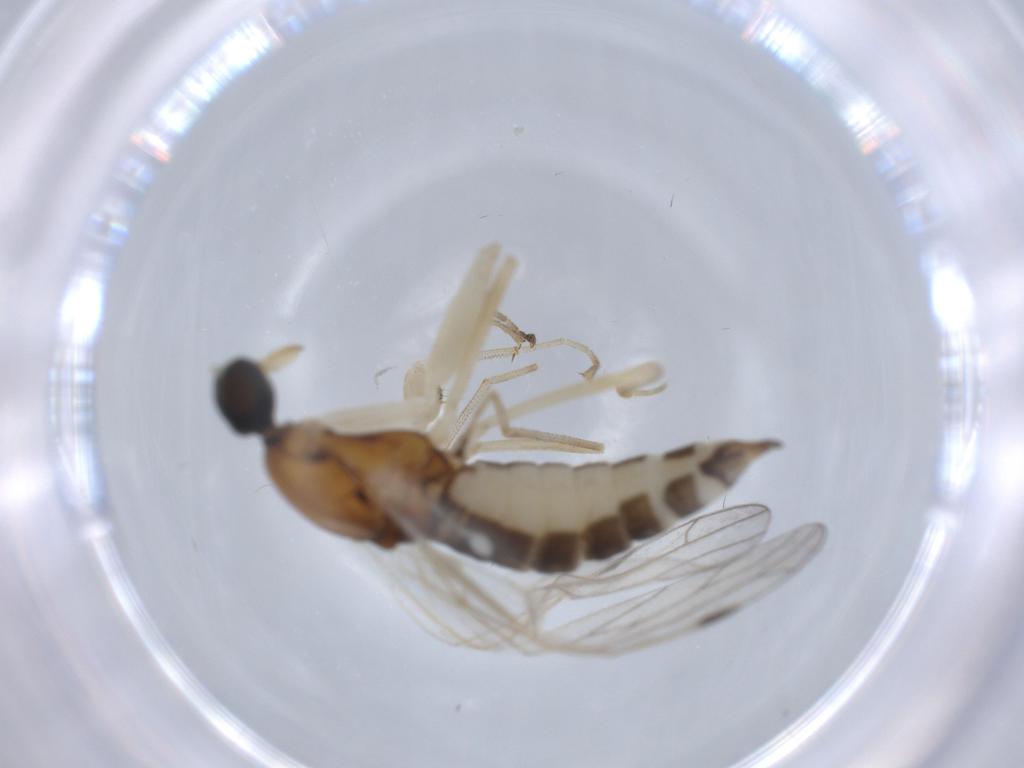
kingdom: Animalia
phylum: Arthropoda
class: Insecta
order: Diptera
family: Empididae
